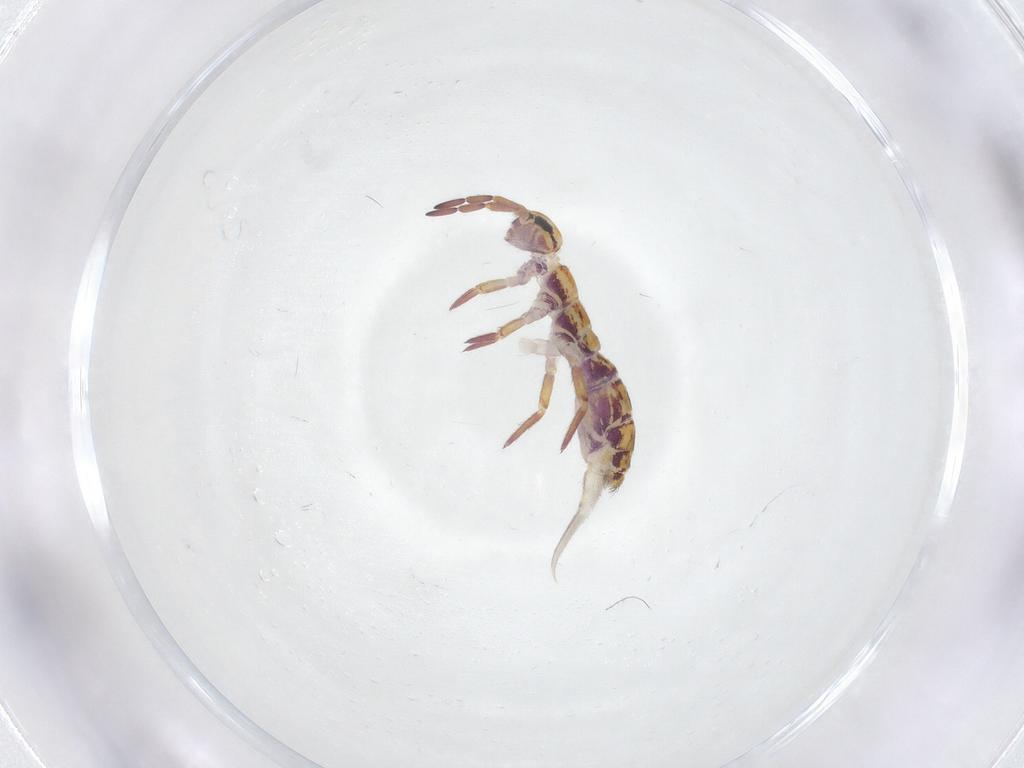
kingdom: Animalia
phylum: Arthropoda
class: Collembola
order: Entomobryomorpha
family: Isotomidae
